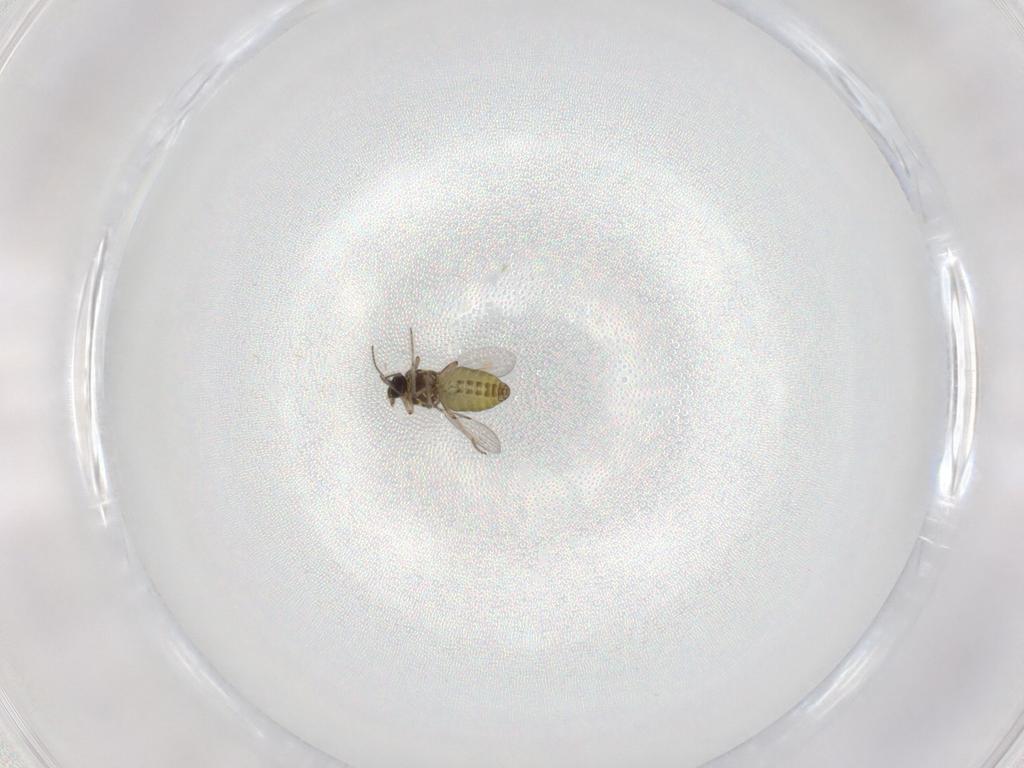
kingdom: Animalia
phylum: Arthropoda
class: Insecta
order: Diptera
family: Ceratopogonidae
